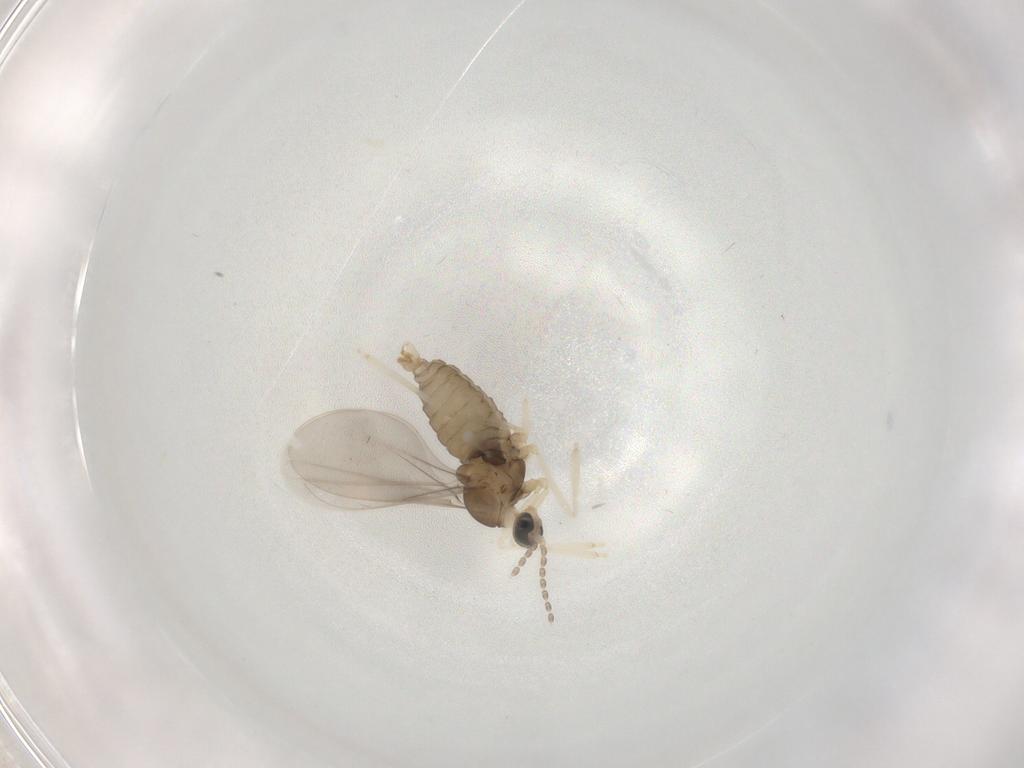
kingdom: Animalia
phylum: Arthropoda
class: Insecta
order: Diptera
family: Cecidomyiidae
